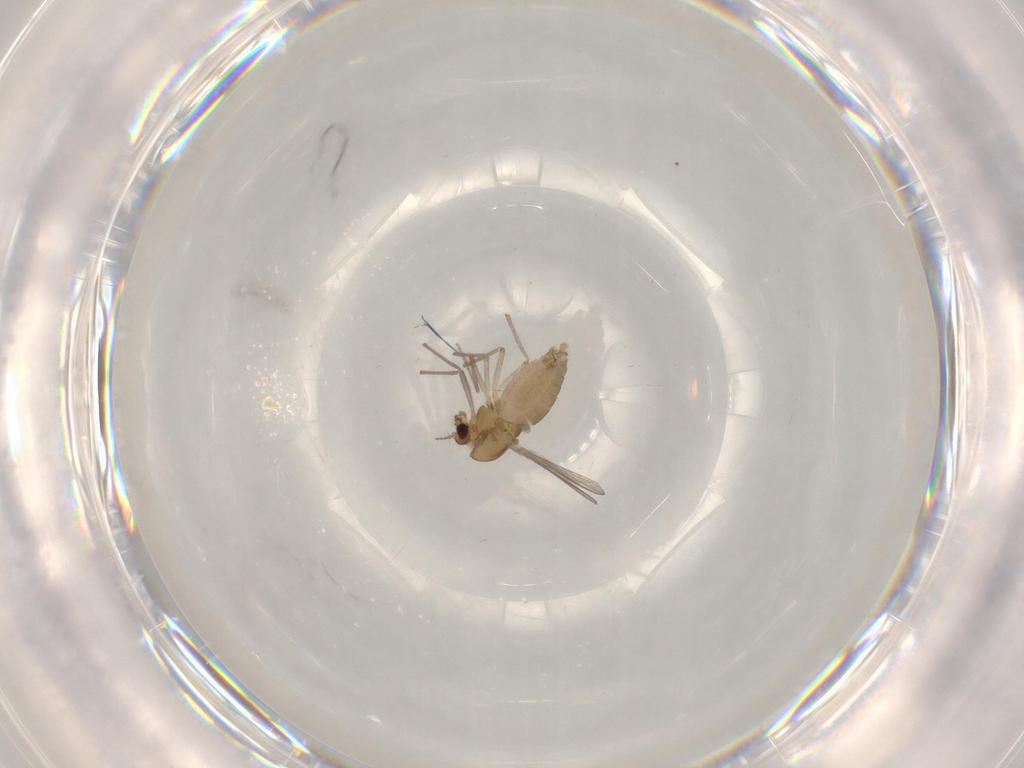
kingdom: Animalia
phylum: Arthropoda
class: Insecta
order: Diptera
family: Chironomidae
